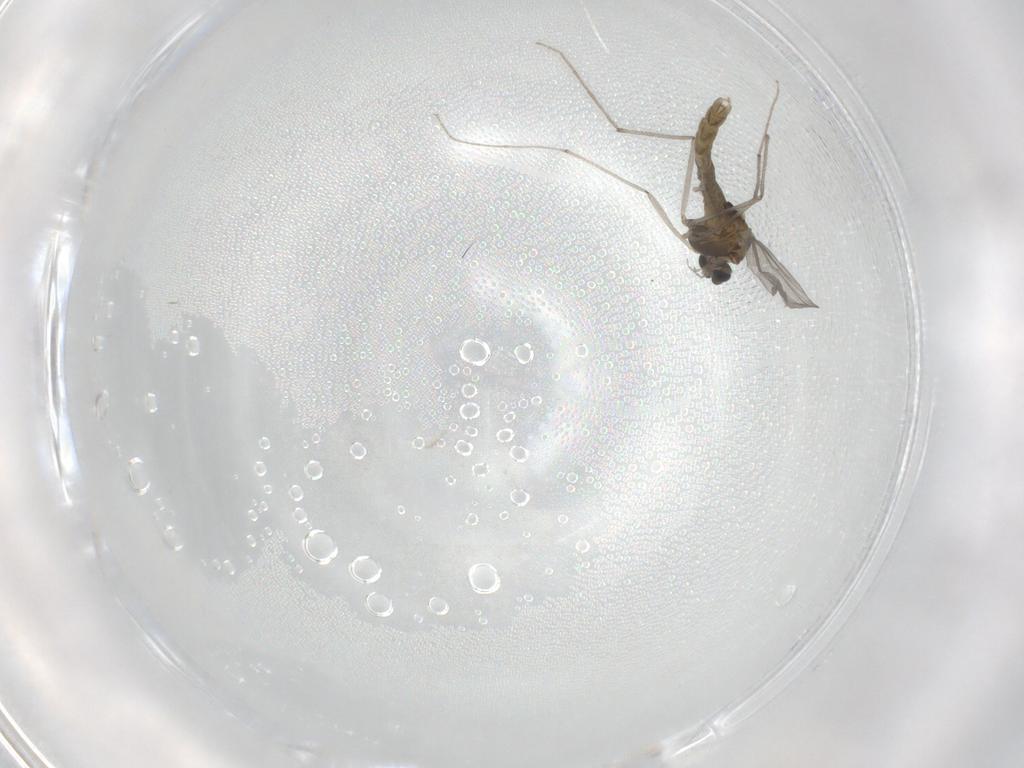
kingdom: Animalia
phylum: Arthropoda
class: Insecta
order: Diptera
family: Chironomidae
